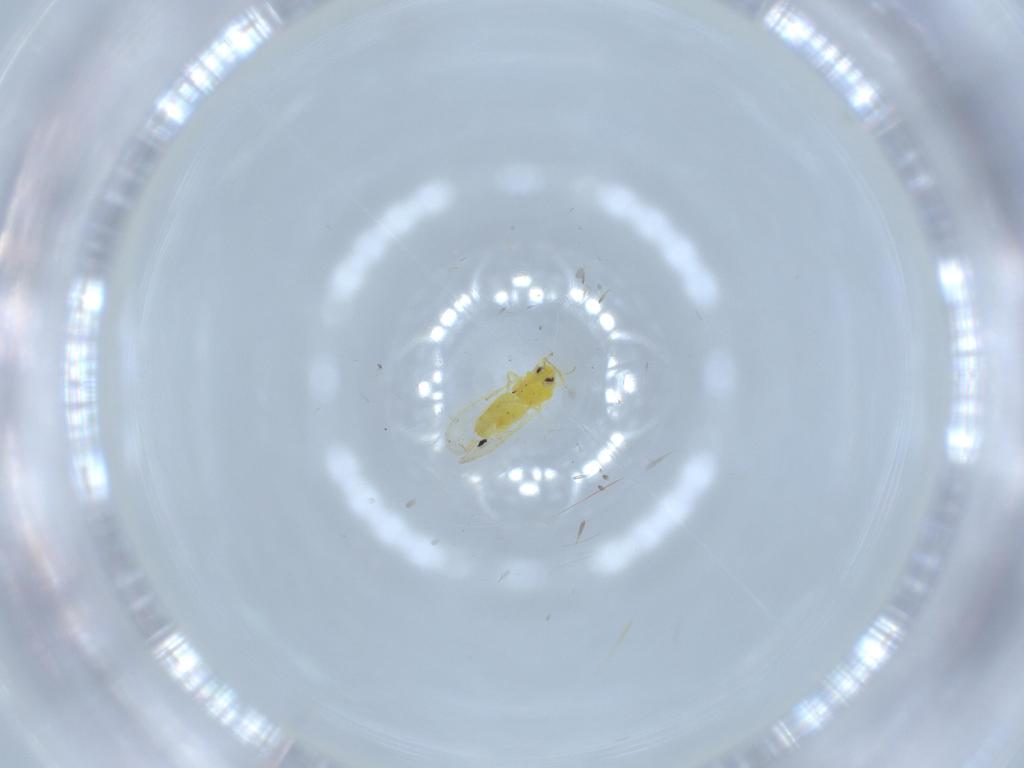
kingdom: Animalia
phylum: Arthropoda
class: Insecta
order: Hemiptera
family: Aleyrodidae
